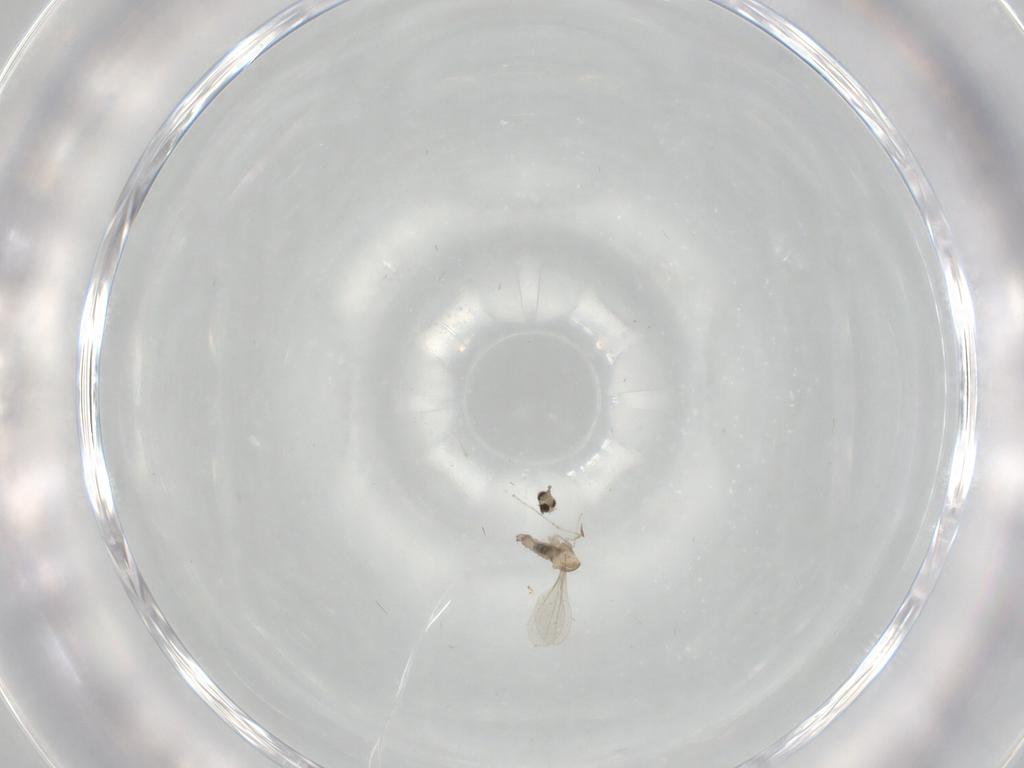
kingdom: Animalia
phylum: Arthropoda
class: Insecta
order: Diptera
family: Cecidomyiidae
